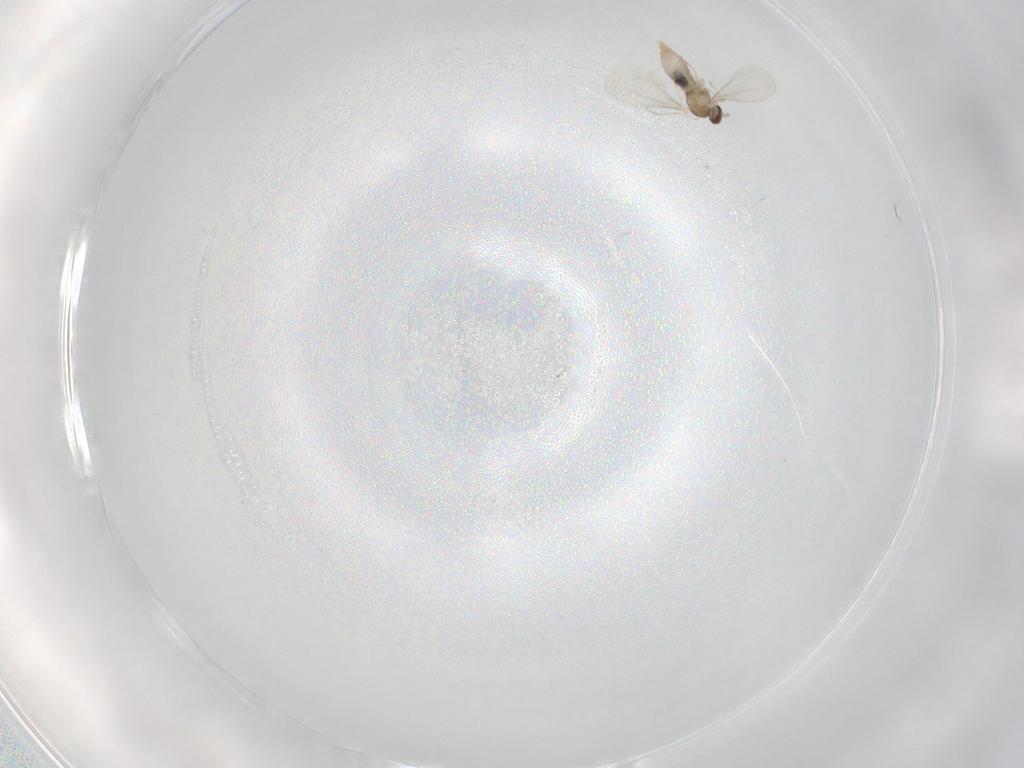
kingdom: Animalia
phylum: Arthropoda
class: Insecta
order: Diptera
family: Cecidomyiidae
